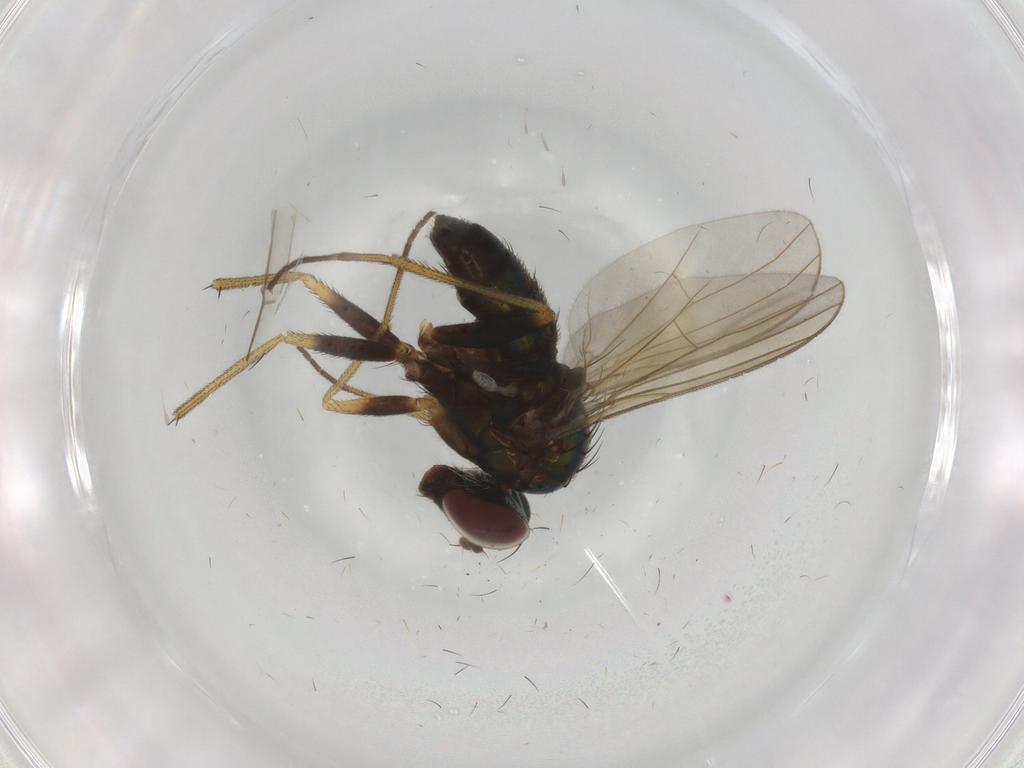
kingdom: Animalia
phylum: Arthropoda
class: Insecta
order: Diptera
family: Dolichopodidae
